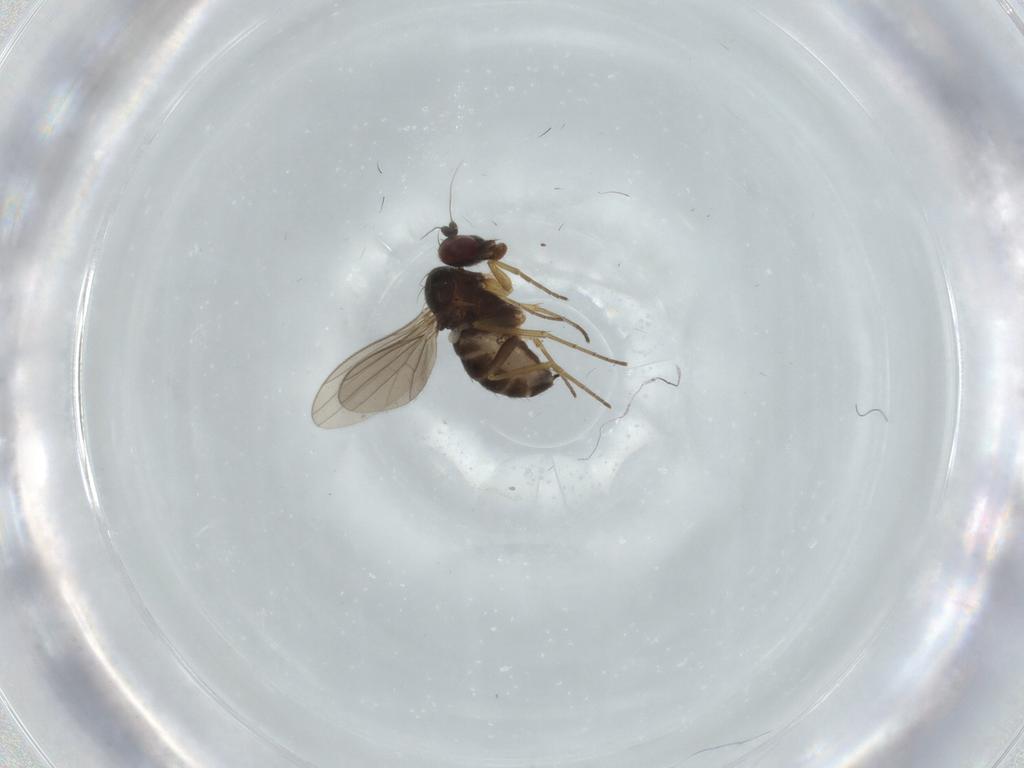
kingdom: Animalia
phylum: Arthropoda
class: Insecta
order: Diptera
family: Dolichopodidae
